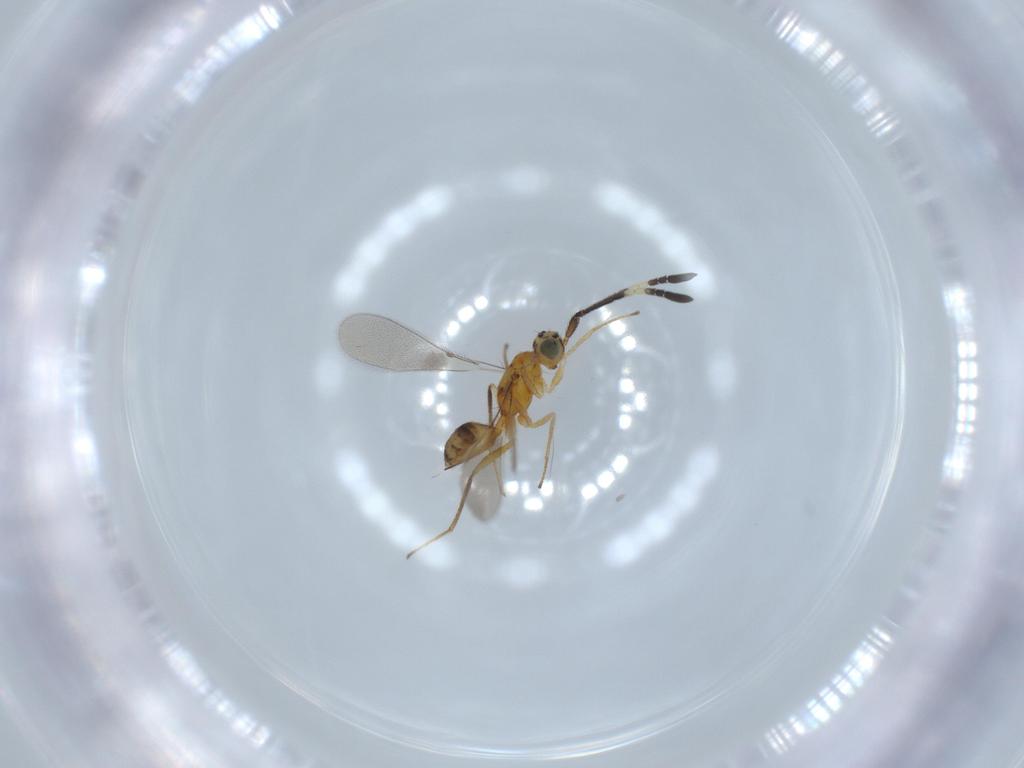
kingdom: Animalia
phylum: Arthropoda
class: Insecta
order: Hymenoptera
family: Mymaridae
